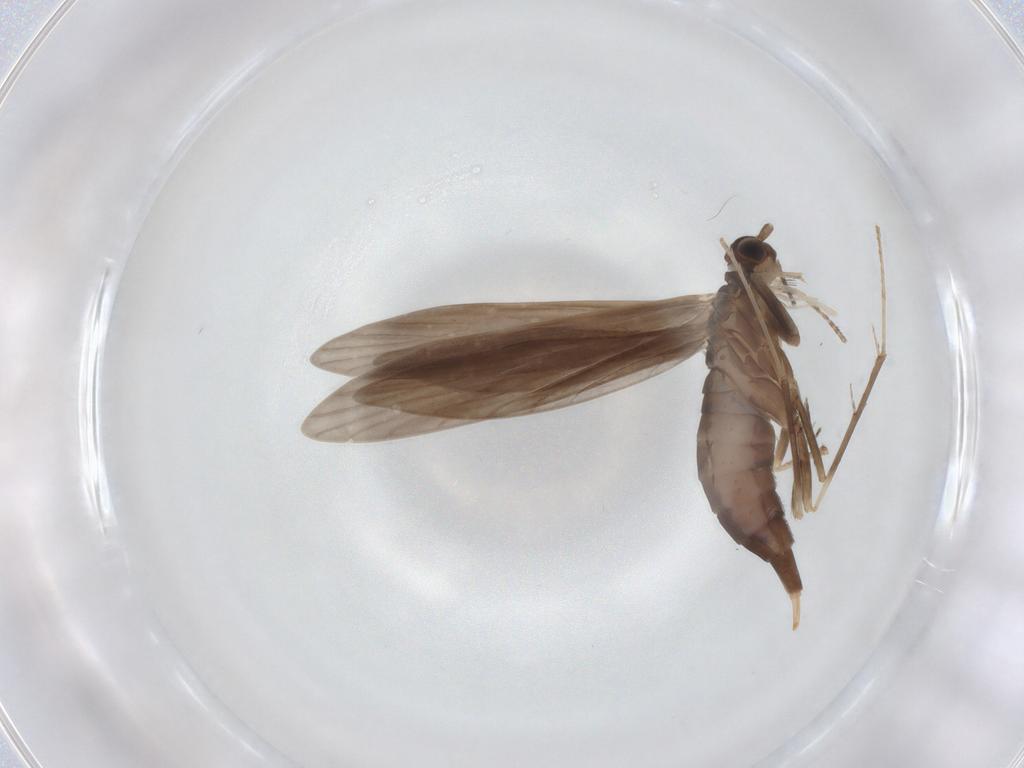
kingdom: Animalia
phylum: Arthropoda
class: Insecta
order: Trichoptera
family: Xiphocentronidae
